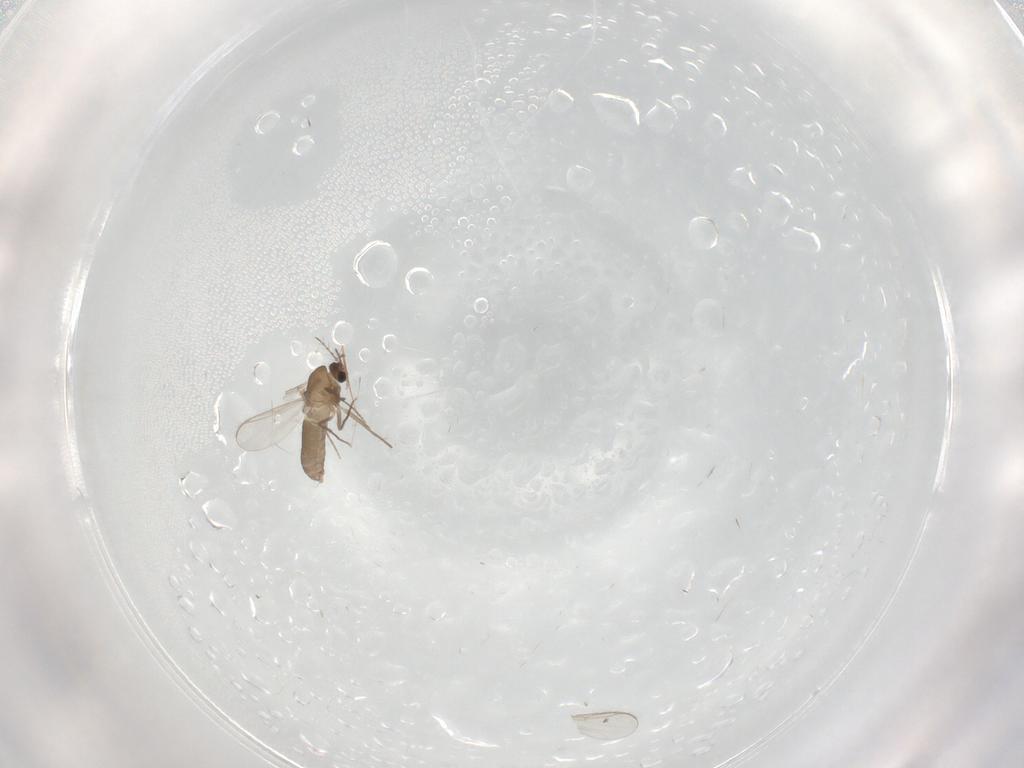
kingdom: Animalia
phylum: Arthropoda
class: Insecta
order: Diptera
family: Chironomidae
